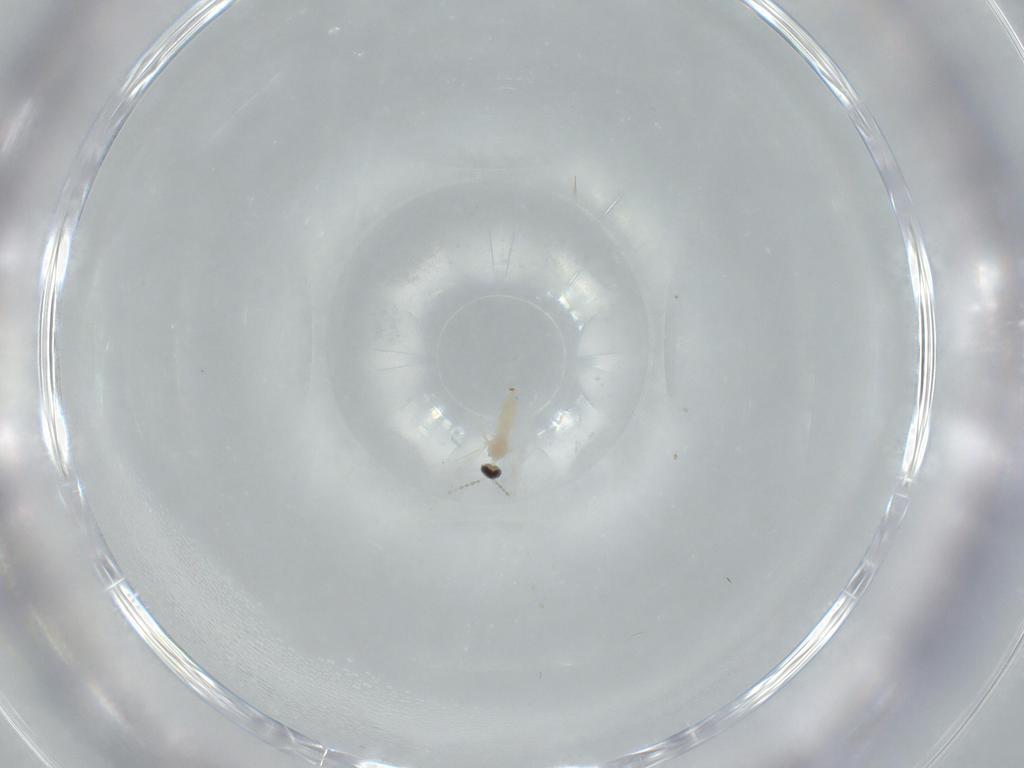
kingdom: Animalia
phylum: Arthropoda
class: Insecta
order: Diptera
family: Cecidomyiidae
